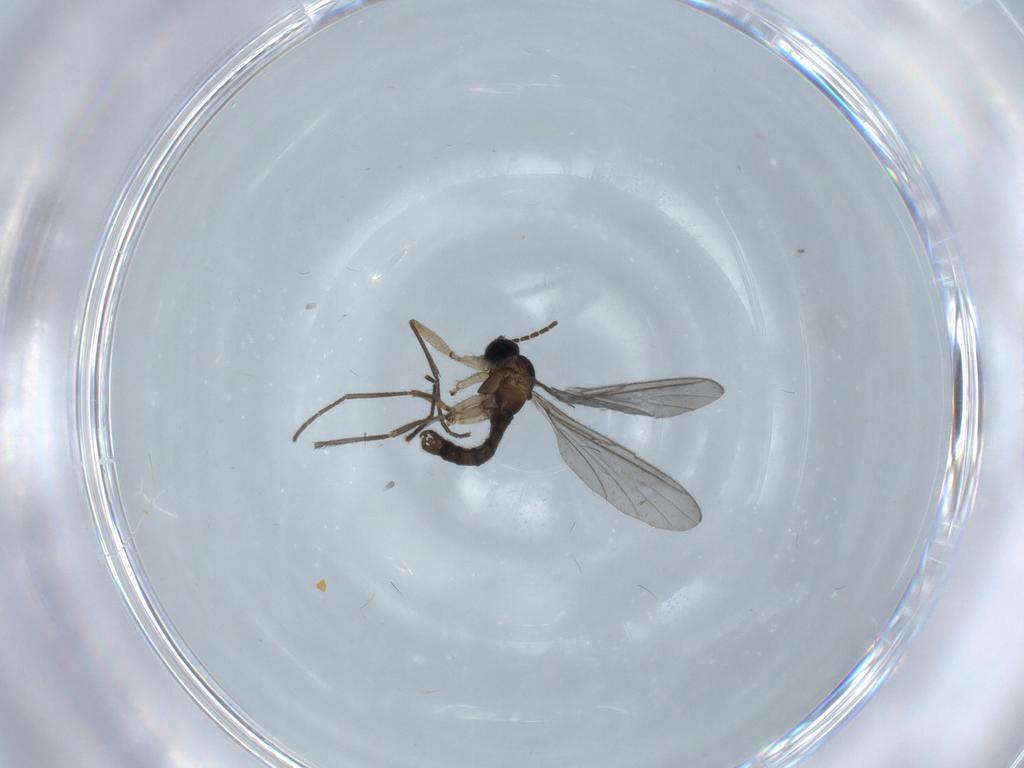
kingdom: Animalia
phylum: Arthropoda
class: Insecta
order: Diptera
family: Sciaridae
